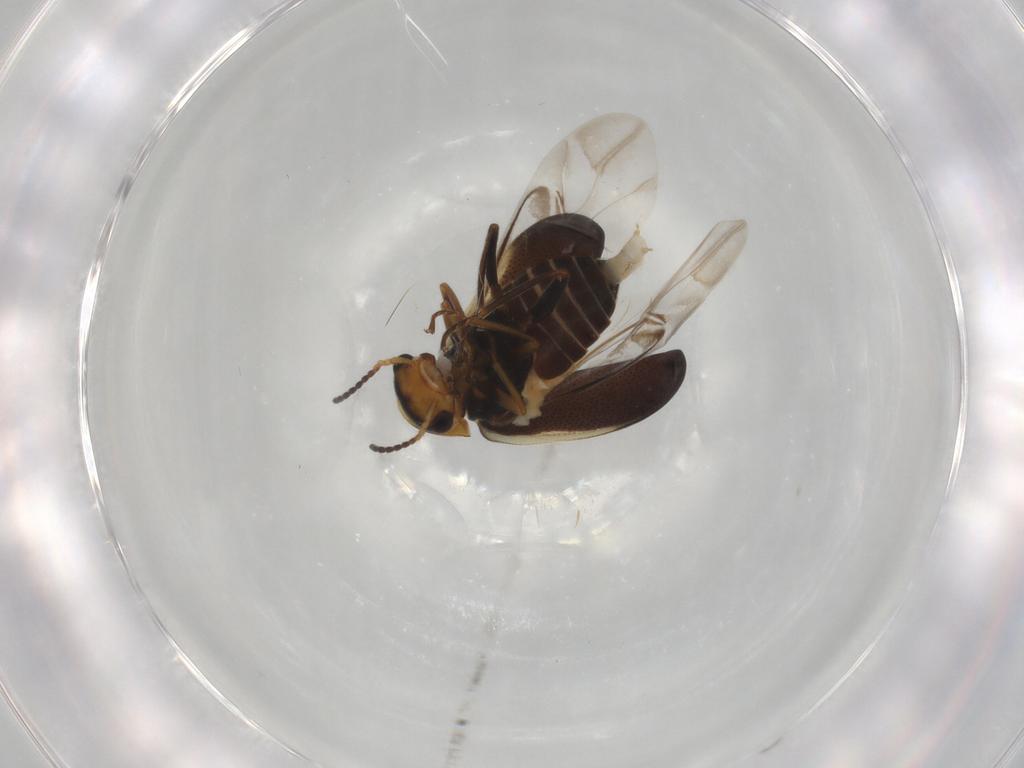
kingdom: Animalia
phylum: Arthropoda
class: Insecta
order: Coleoptera
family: Melyridae
